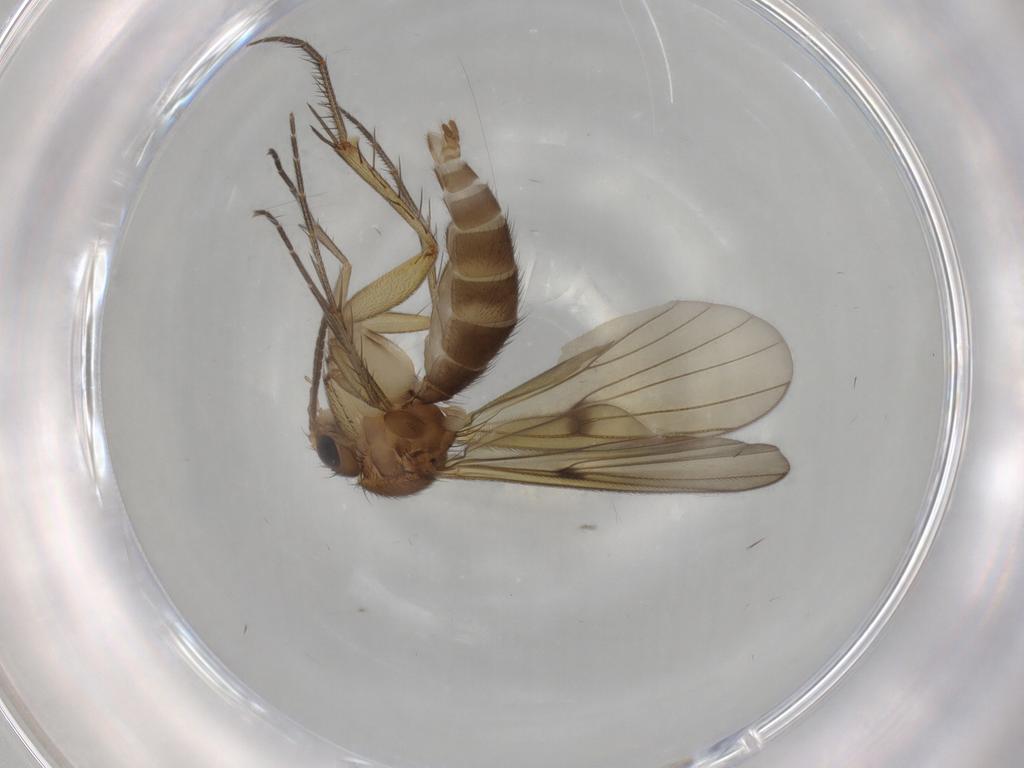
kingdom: Animalia
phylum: Arthropoda
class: Insecta
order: Diptera
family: Mycetophilidae
